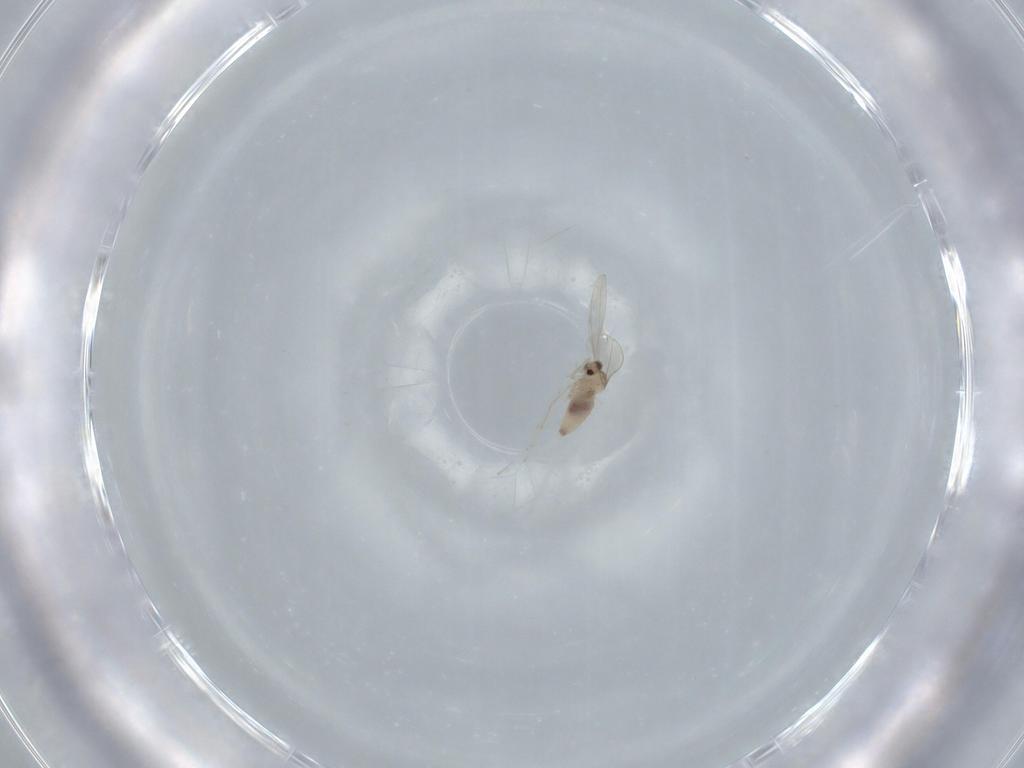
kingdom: Animalia
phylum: Arthropoda
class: Insecta
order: Diptera
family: Cecidomyiidae
